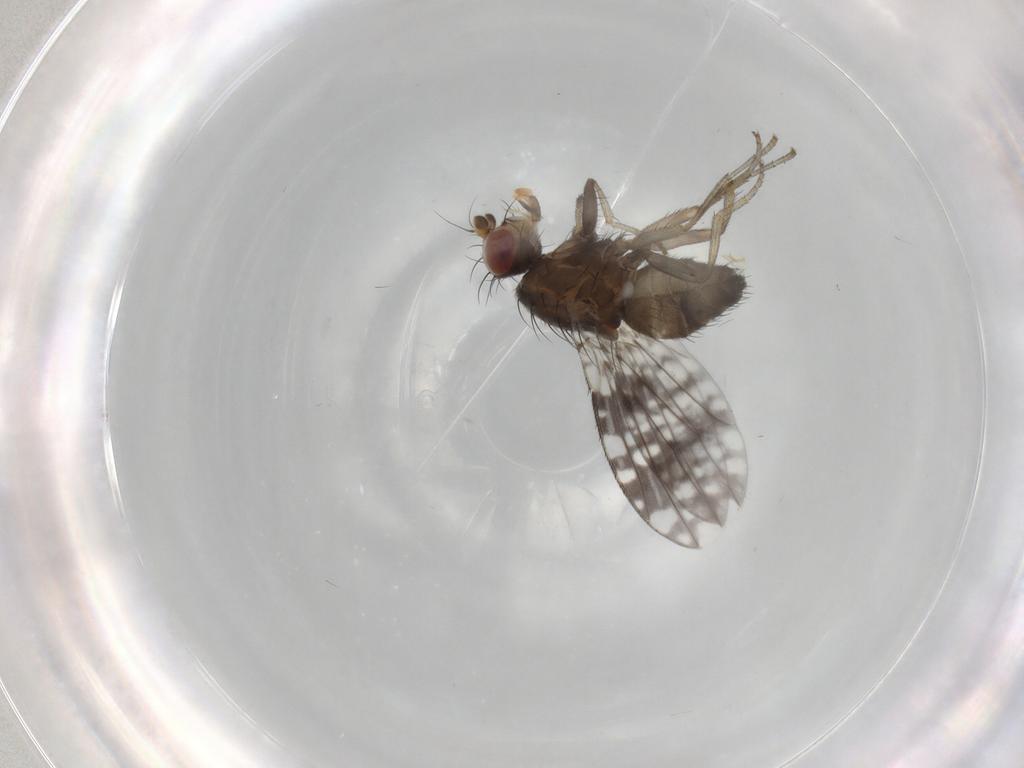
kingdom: Animalia
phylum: Arthropoda
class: Insecta
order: Diptera
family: Tephritidae
